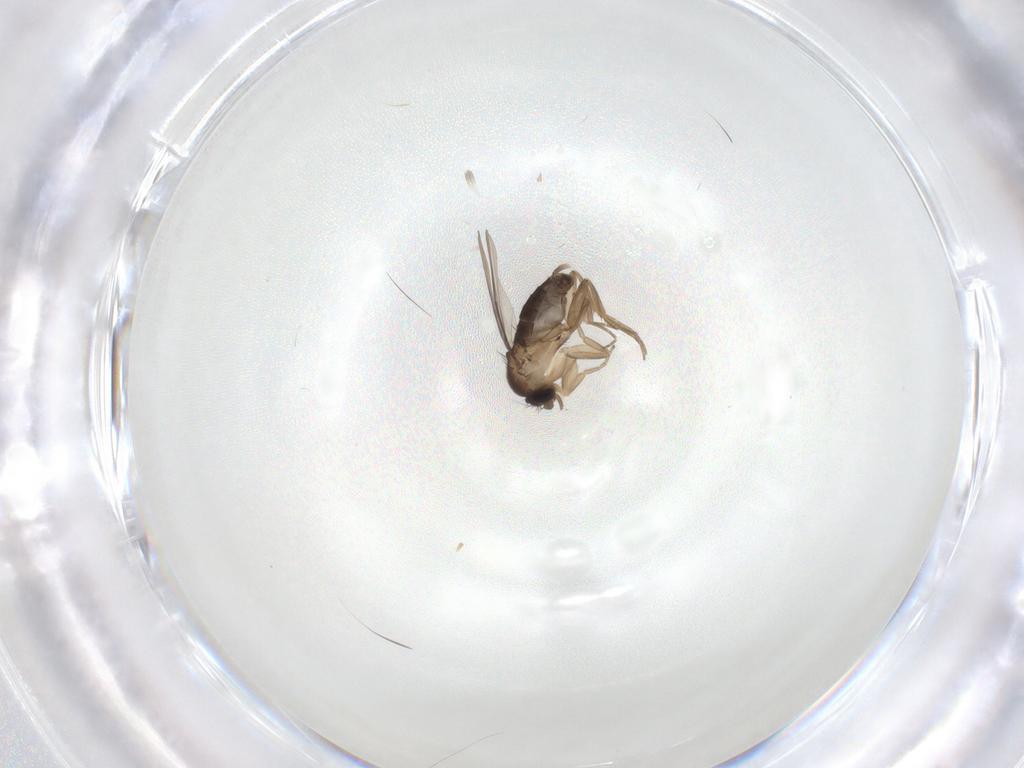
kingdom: Animalia
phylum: Arthropoda
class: Insecta
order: Diptera
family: Phoridae
